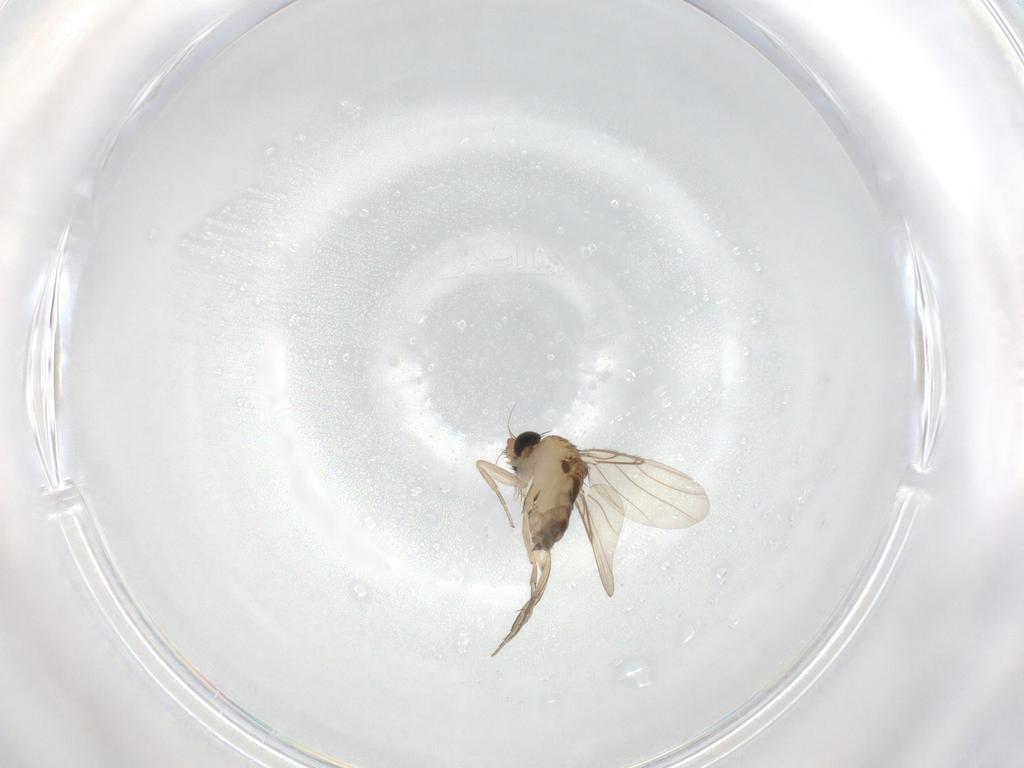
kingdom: Animalia
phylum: Arthropoda
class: Insecta
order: Diptera
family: Phoridae
